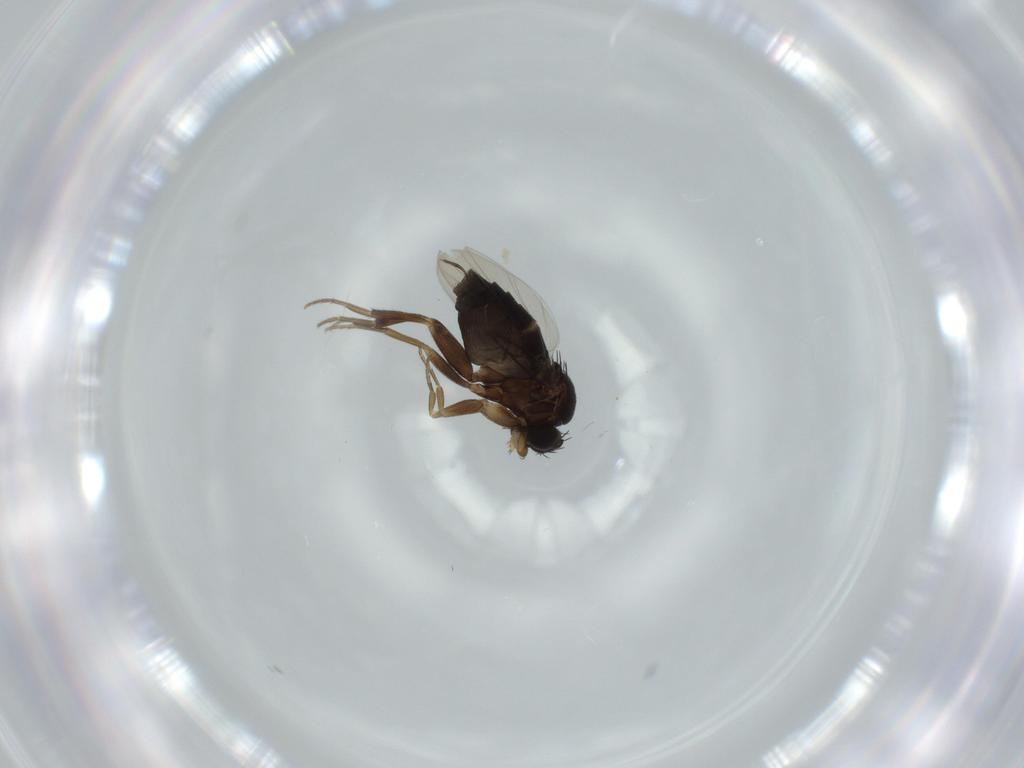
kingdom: Animalia
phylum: Arthropoda
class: Insecta
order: Diptera
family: Phoridae
